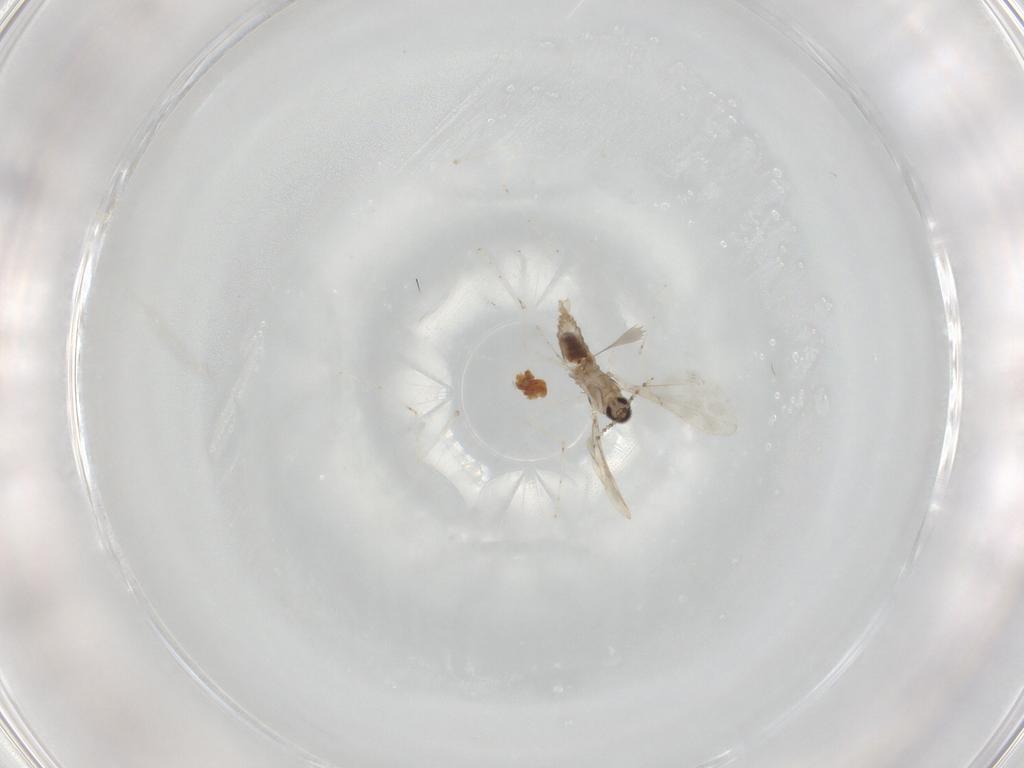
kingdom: Animalia
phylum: Arthropoda
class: Insecta
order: Diptera
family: Cecidomyiidae
